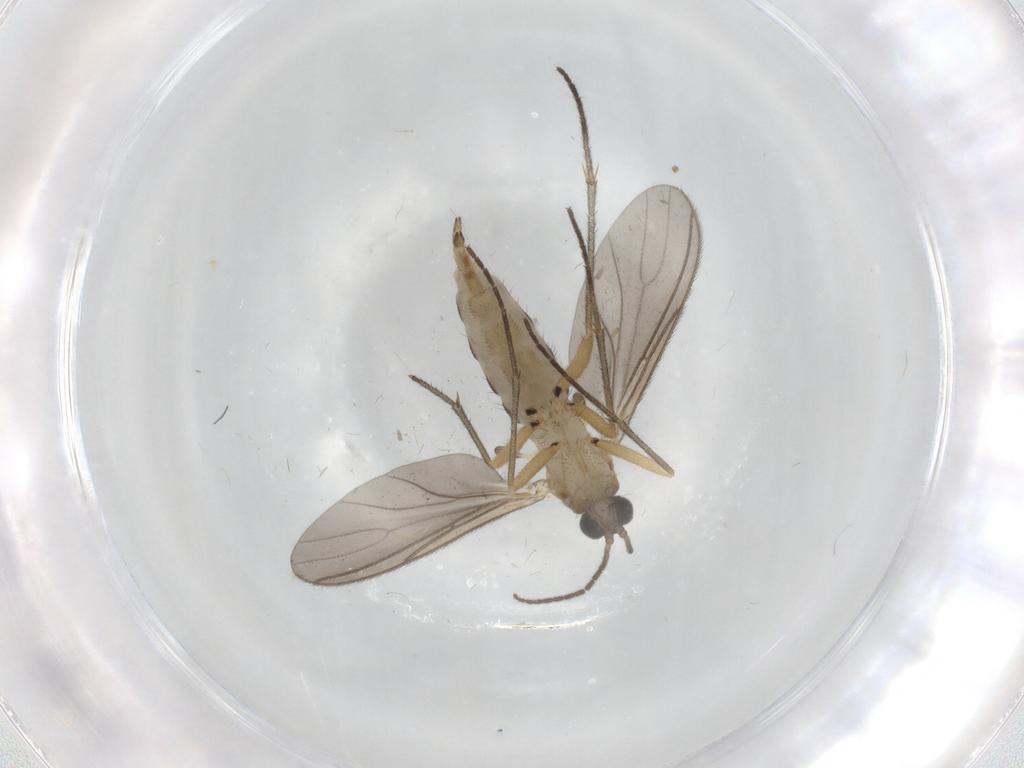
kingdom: Animalia
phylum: Arthropoda
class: Insecta
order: Diptera
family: Sciaridae
